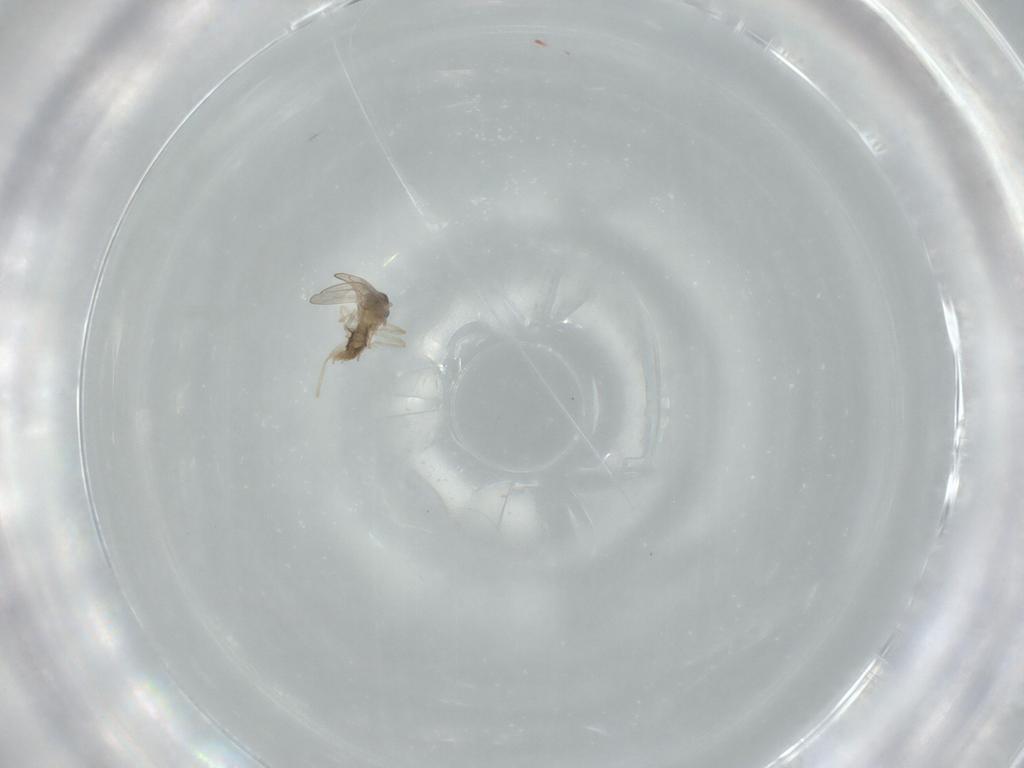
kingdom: Animalia
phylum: Arthropoda
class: Insecta
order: Diptera
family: Cecidomyiidae
